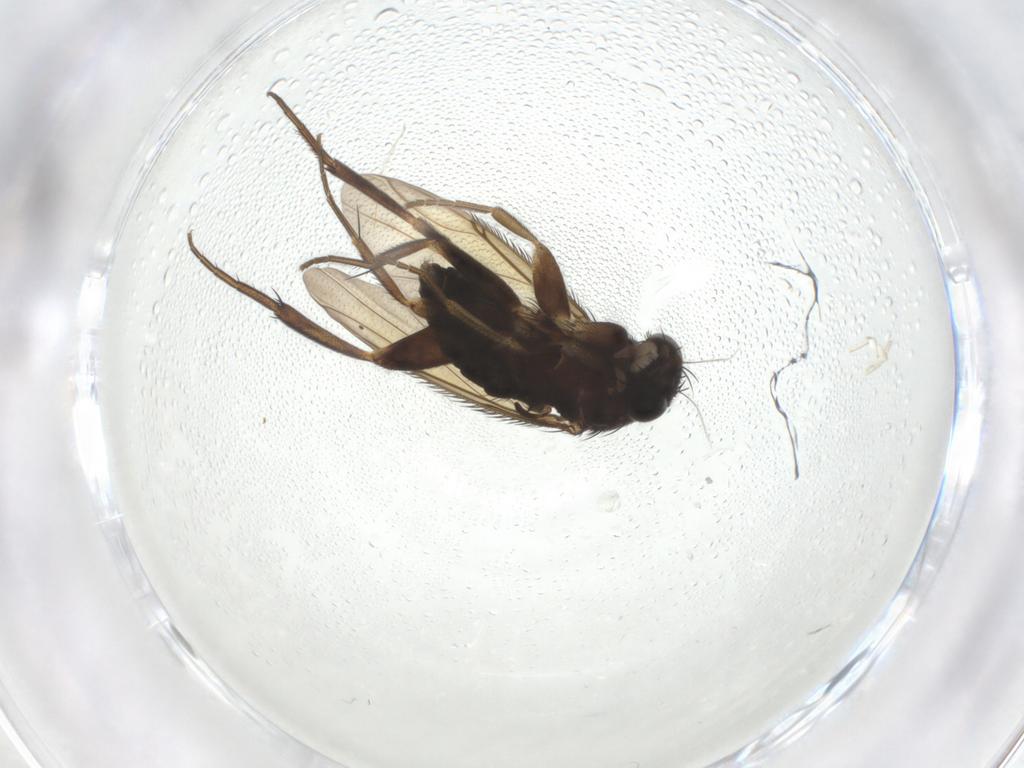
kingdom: Animalia
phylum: Arthropoda
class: Insecta
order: Diptera
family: Phoridae
